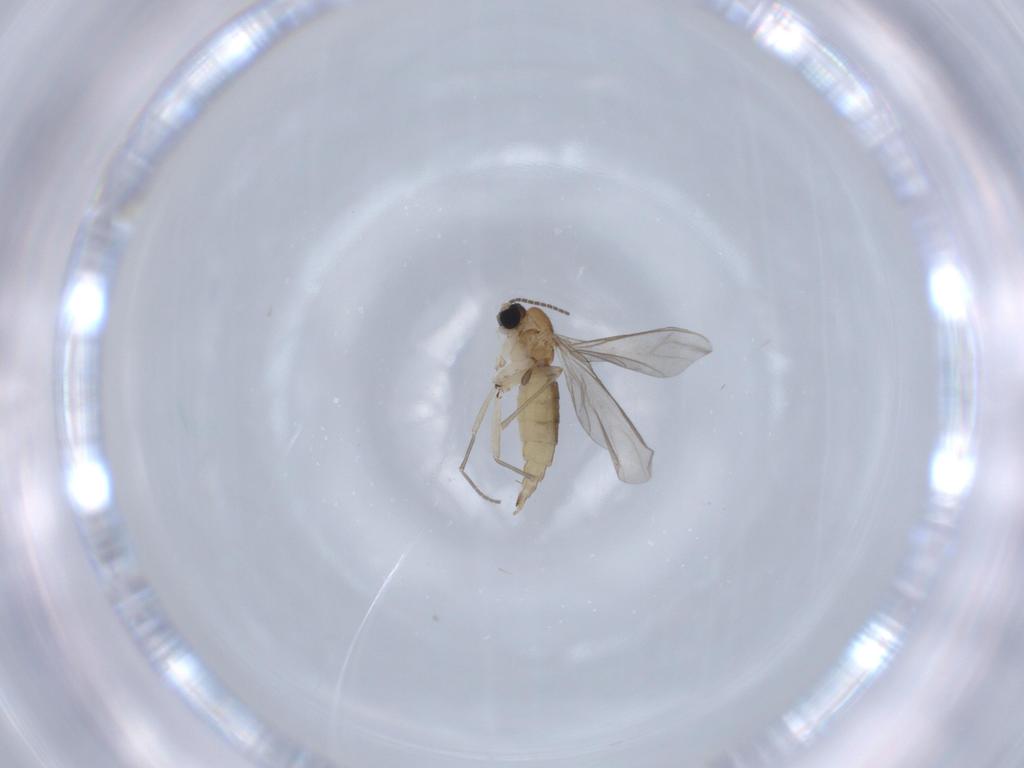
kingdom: Animalia
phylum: Arthropoda
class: Insecta
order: Diptera
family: Sciaridae
